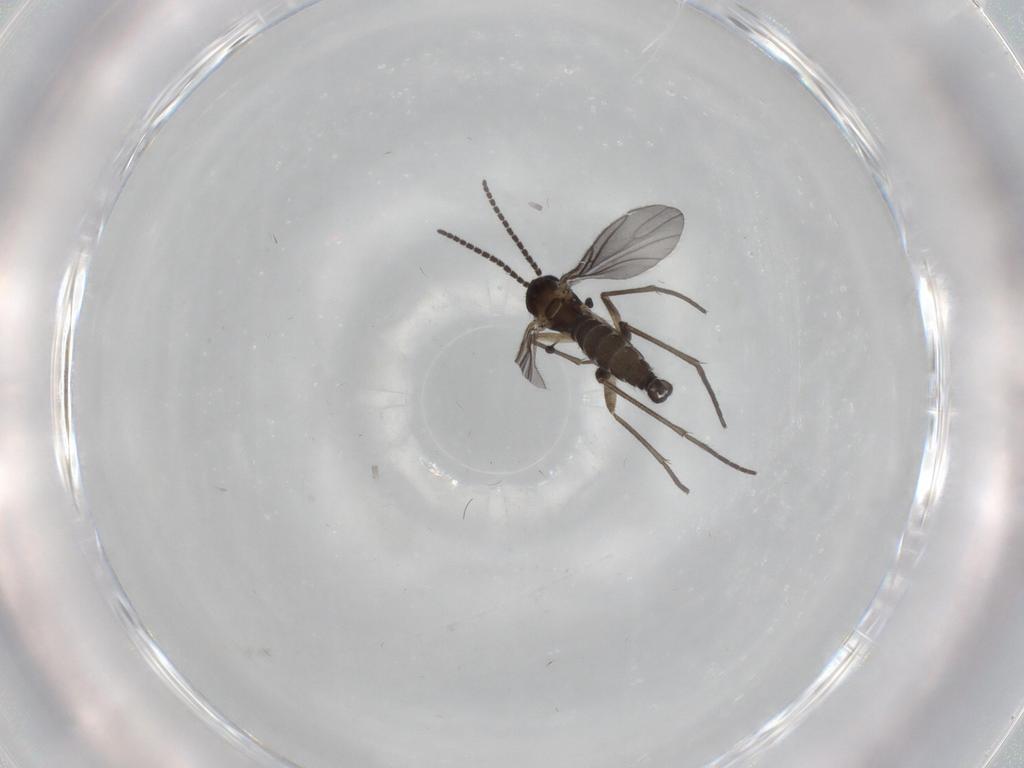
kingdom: Animalia
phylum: Arthropoda
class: Insecta
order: Diptera
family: Sciaridae
